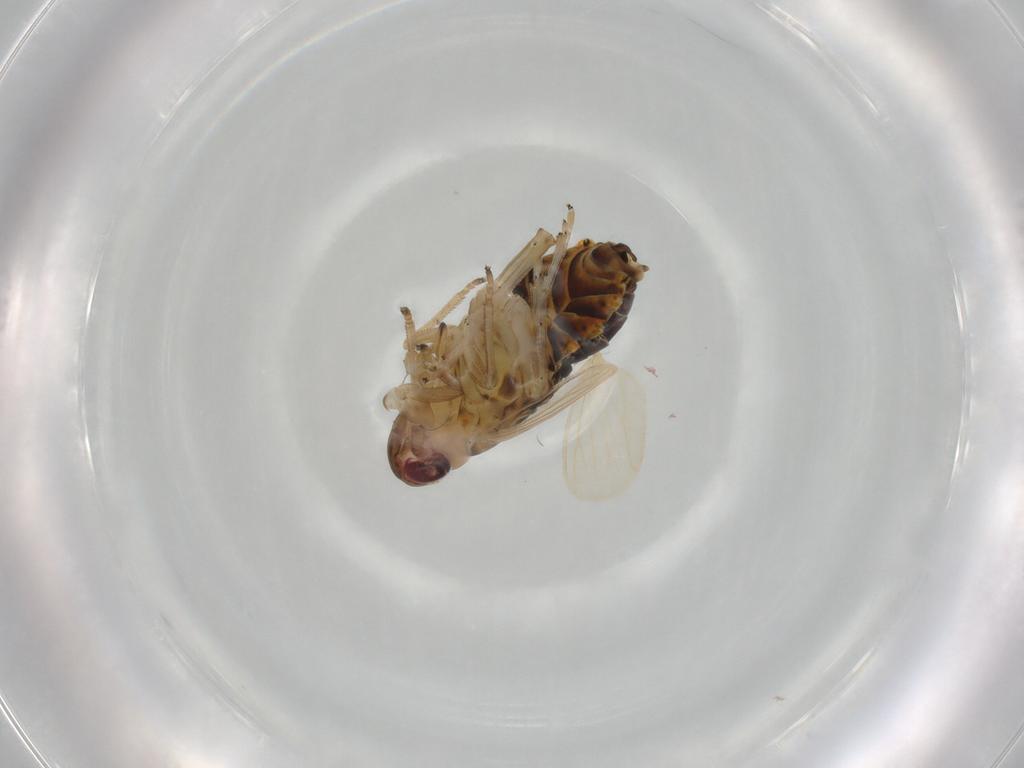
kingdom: Animalia
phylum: Arthropoda
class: Insecta
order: Hemiptera
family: Delphacidae
